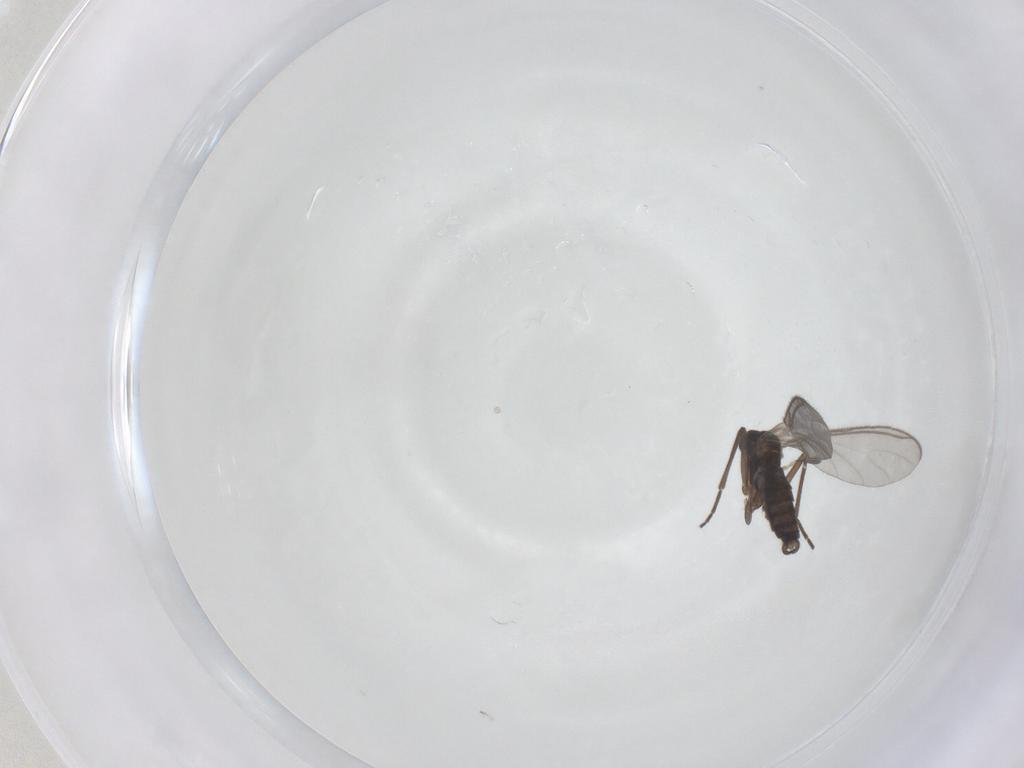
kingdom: Animalia
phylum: Arthropoda
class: Insecta
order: Diptera
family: Sciaridae
